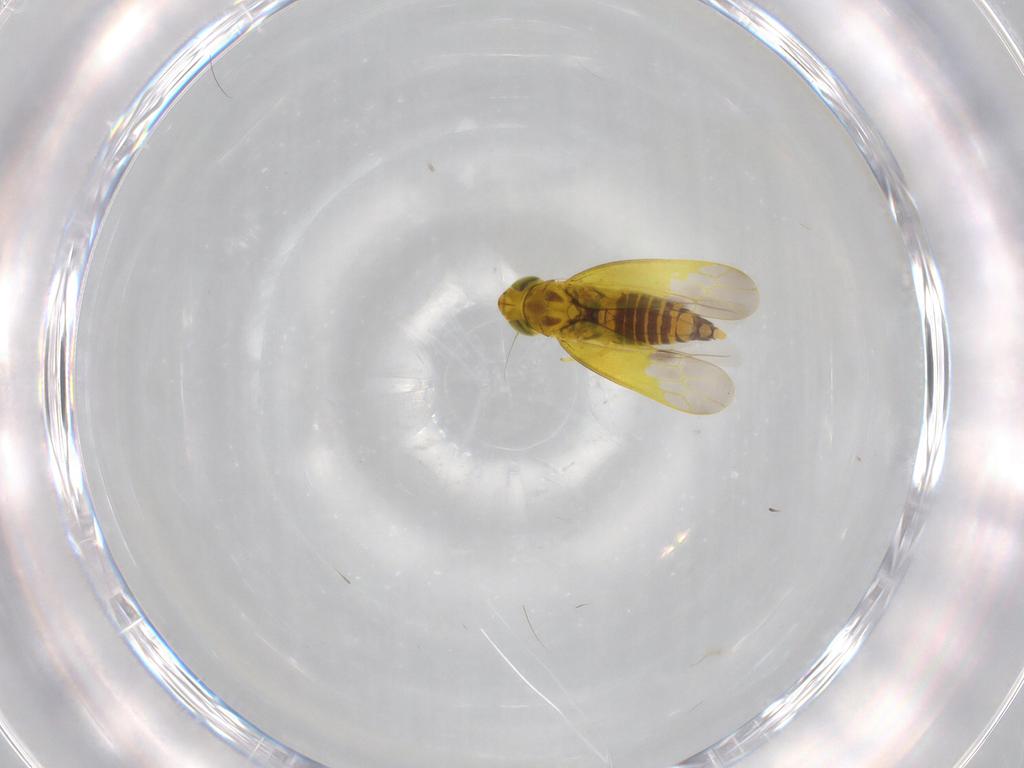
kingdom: Animalia
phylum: Arthropoda
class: Insecta
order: Hemiptera
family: Cicadellidae
